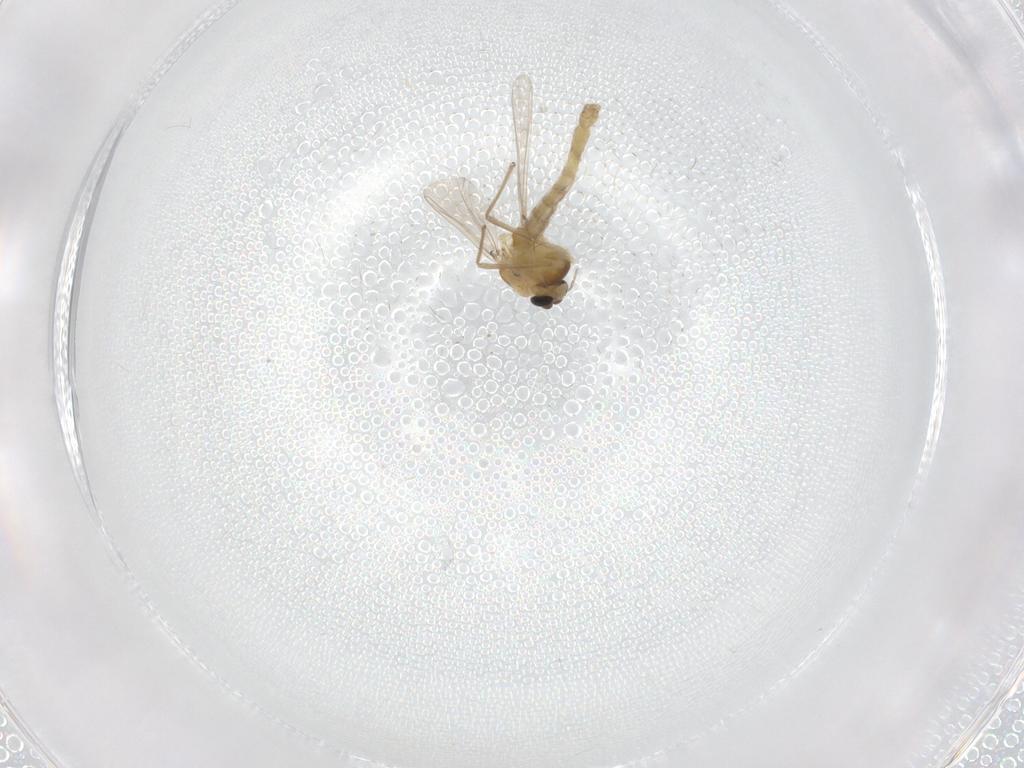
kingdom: Animalia
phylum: Arthropoda
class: Insecta
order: Diptera
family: Chaoboridae
